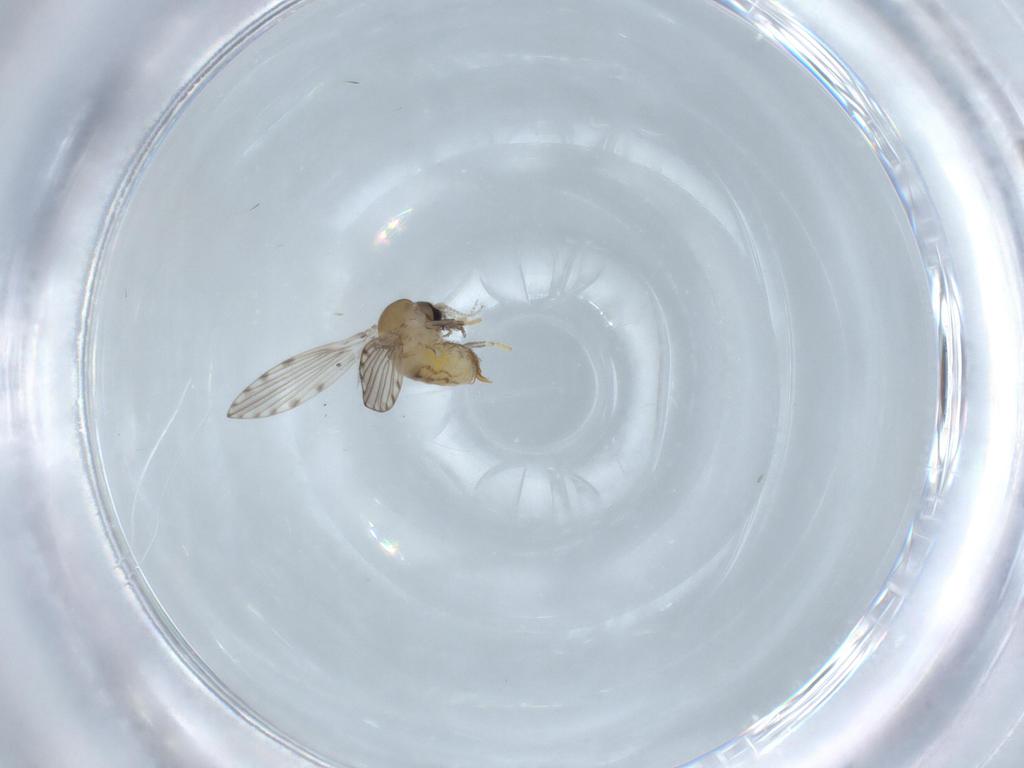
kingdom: Animalia
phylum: Arthropoda
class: Insecta
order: Diptera
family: Psychodidae
